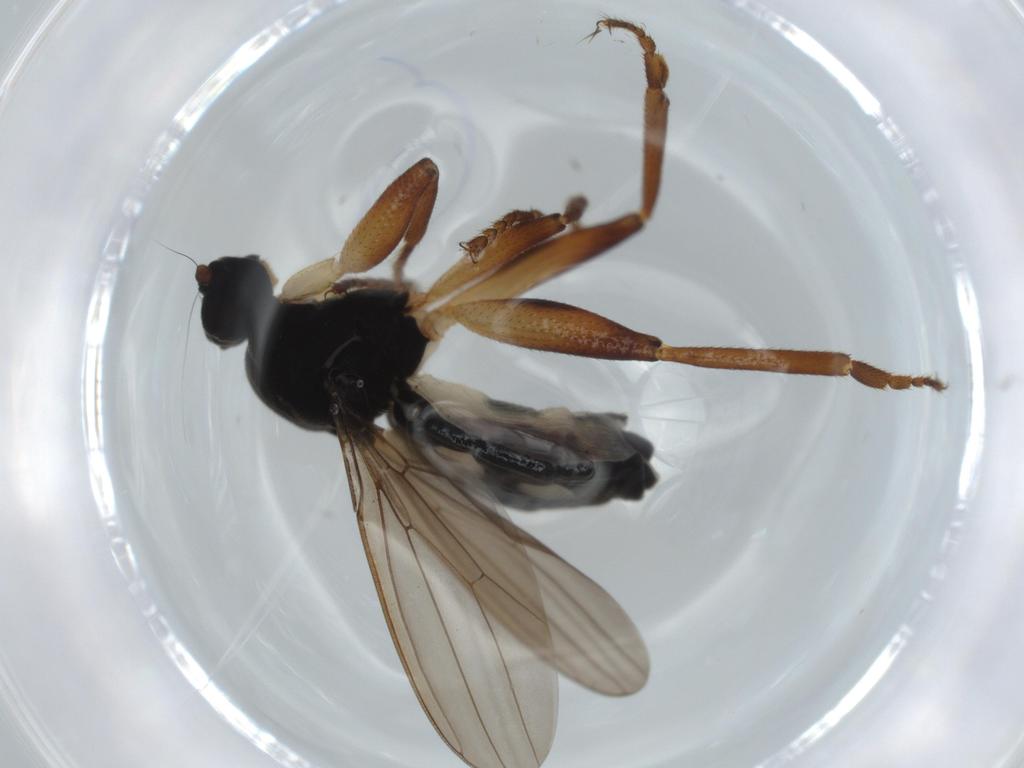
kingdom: Animalia
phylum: Arthropoda
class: Insecta
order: Diptera
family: Sphaeroceridae
